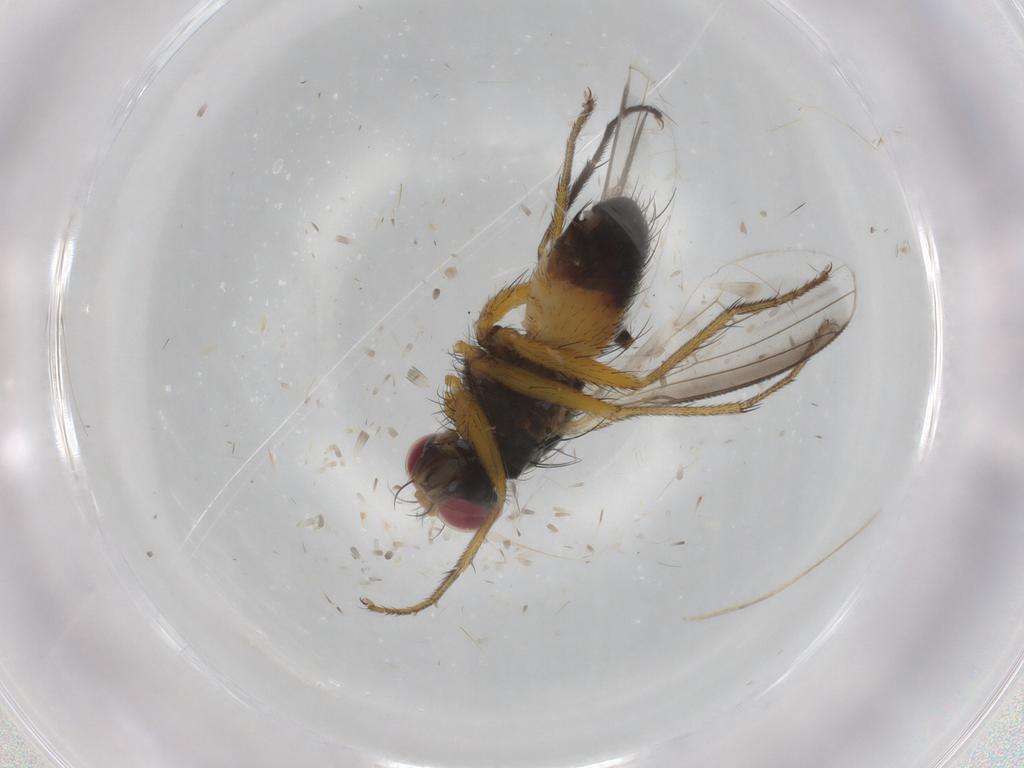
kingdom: Animalia
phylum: Arthropoda
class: Insecta
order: Diptera
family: Muscidae
